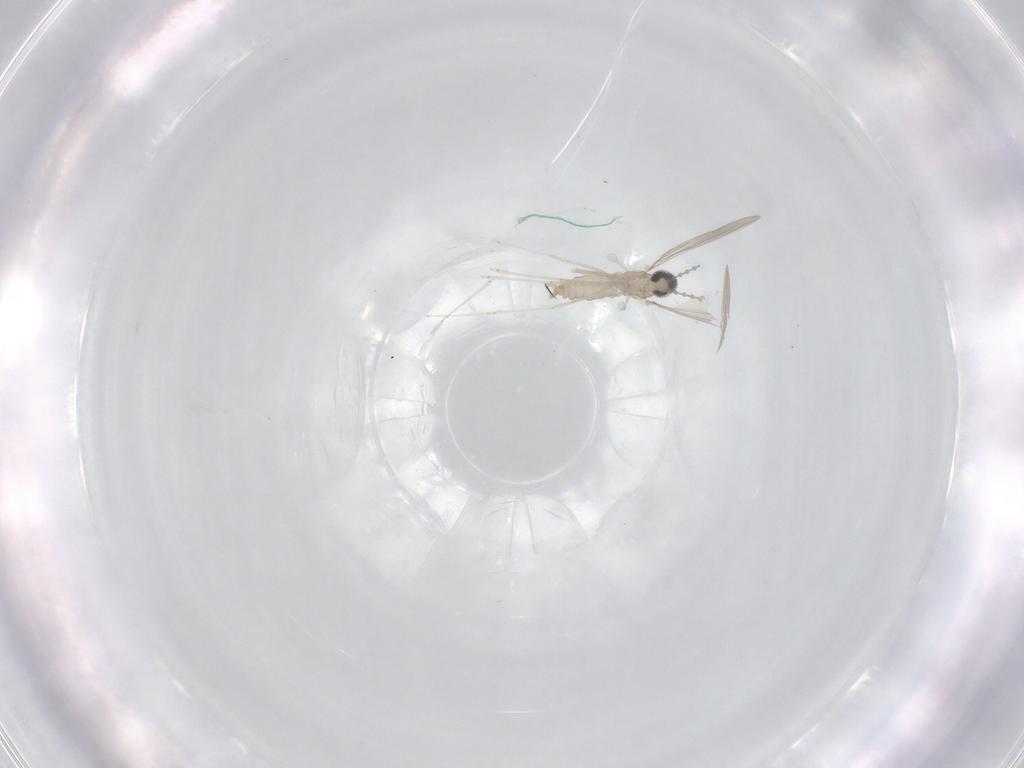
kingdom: Animalia
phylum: Arthropoda
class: Insecta
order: Diptera
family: Cecidomyiidae
